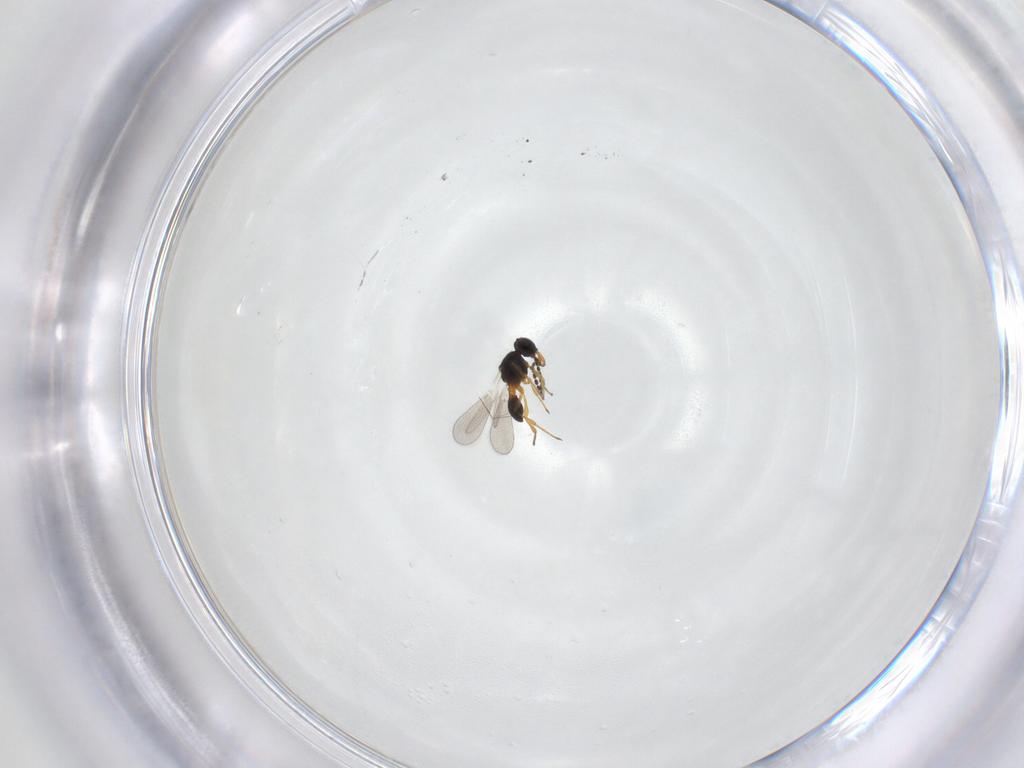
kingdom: Animalia
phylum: Arthropoda
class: Insecta
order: Hymenoptera
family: Platygastridae
